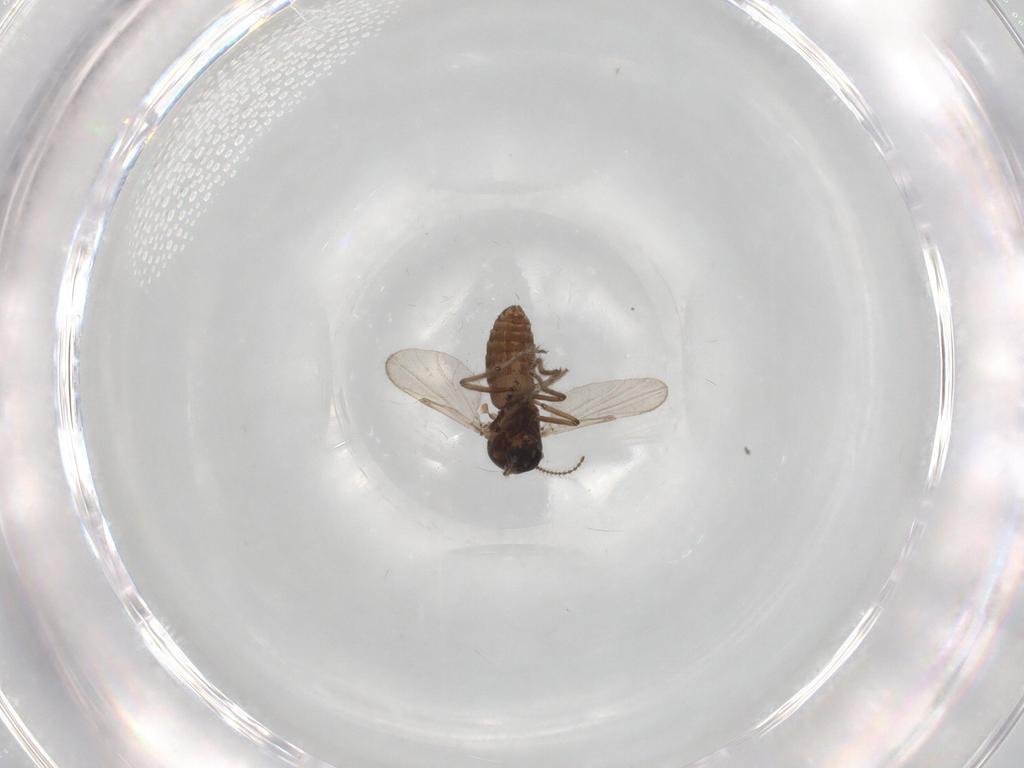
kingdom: Animalia
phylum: Arthropoda
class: Insecta
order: Diptera
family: Chironomidae
